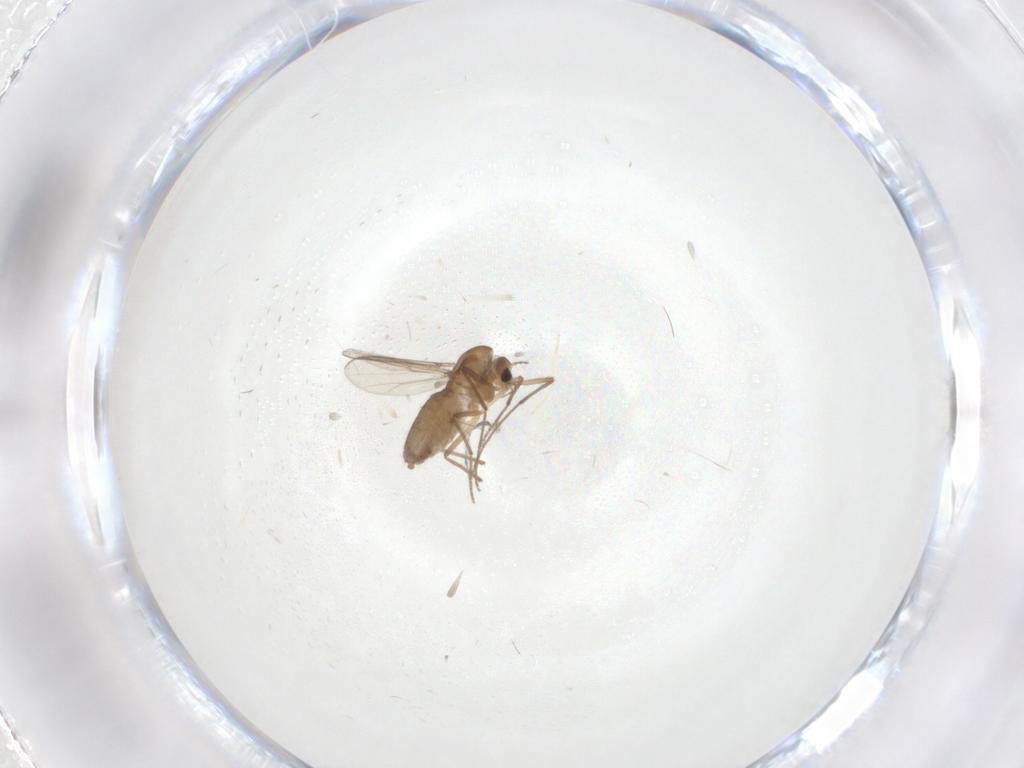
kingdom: Animalia
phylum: Arthropoda
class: Insecta
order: Diptera
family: Chironomidae
